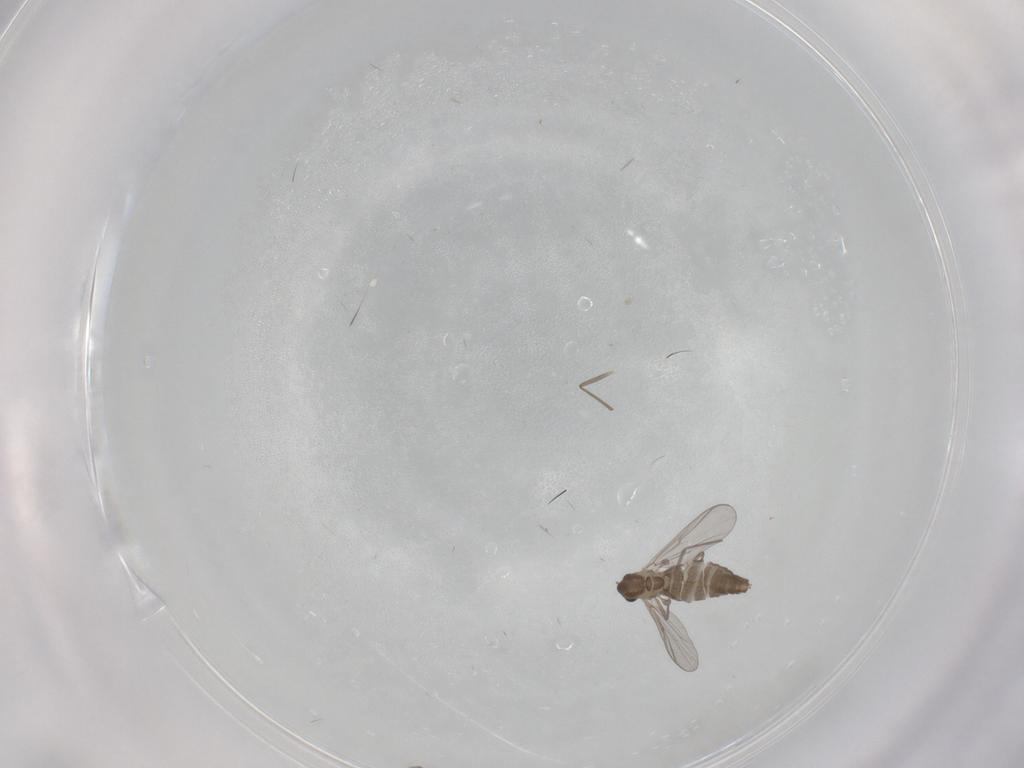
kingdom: Animalia
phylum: Arthropoda
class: Insecta
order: Diptera
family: Chironomidae
